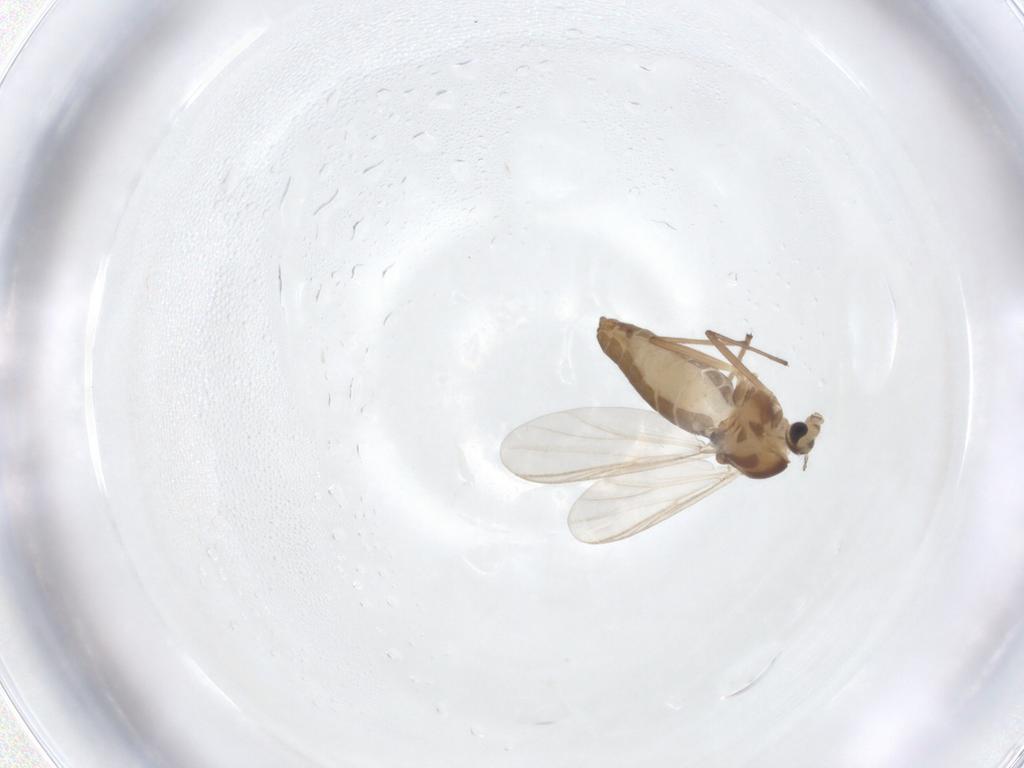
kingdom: Animalia
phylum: Arthropoda
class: Insecta
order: Diptera
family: Chironomidae
